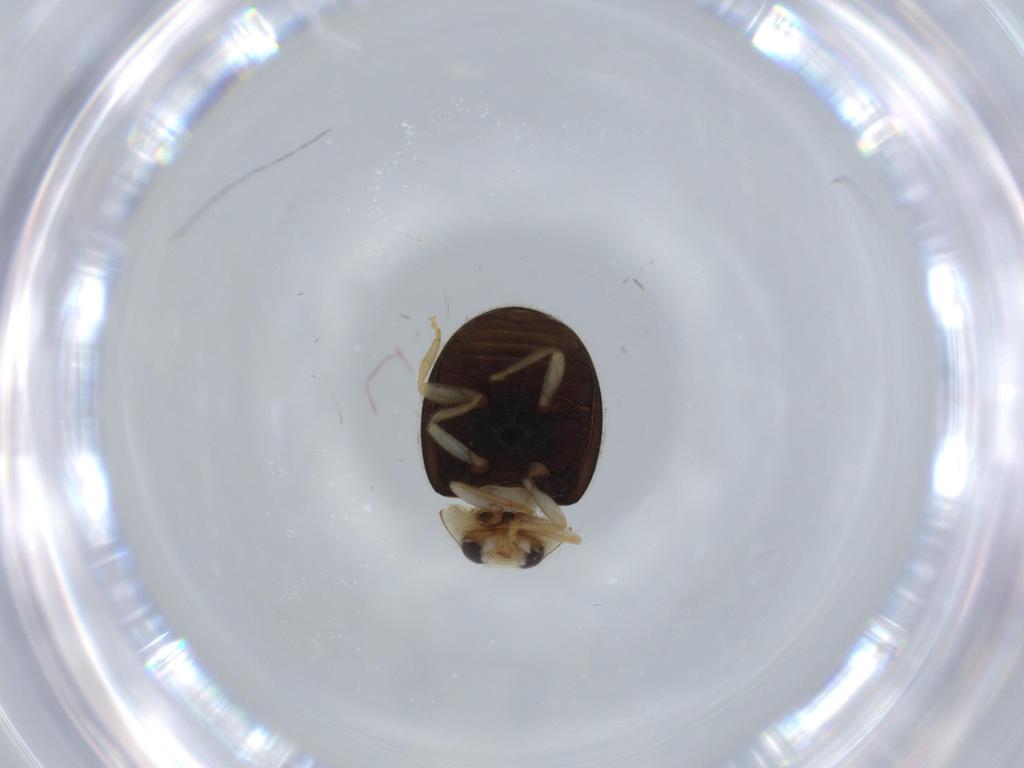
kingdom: Animalia
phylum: Arthropoda
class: Insecta
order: Coleoptera
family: Coccinellidae
